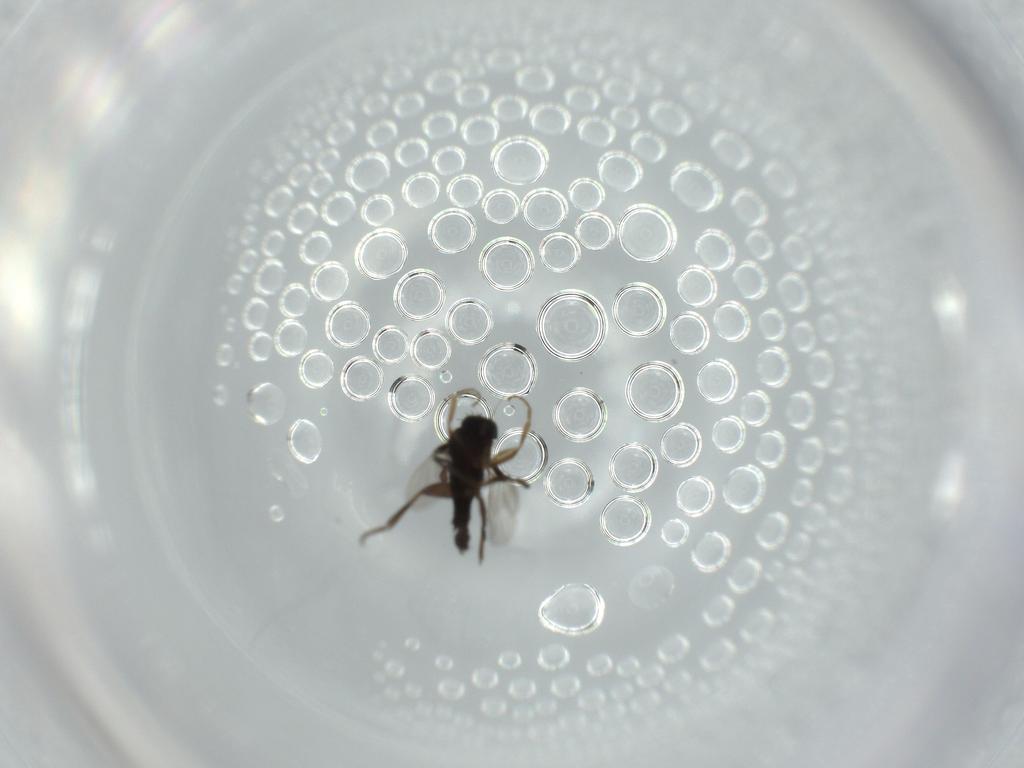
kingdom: Animalia
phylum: Arthropoda
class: Insecta
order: Diptera
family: Phoridae
